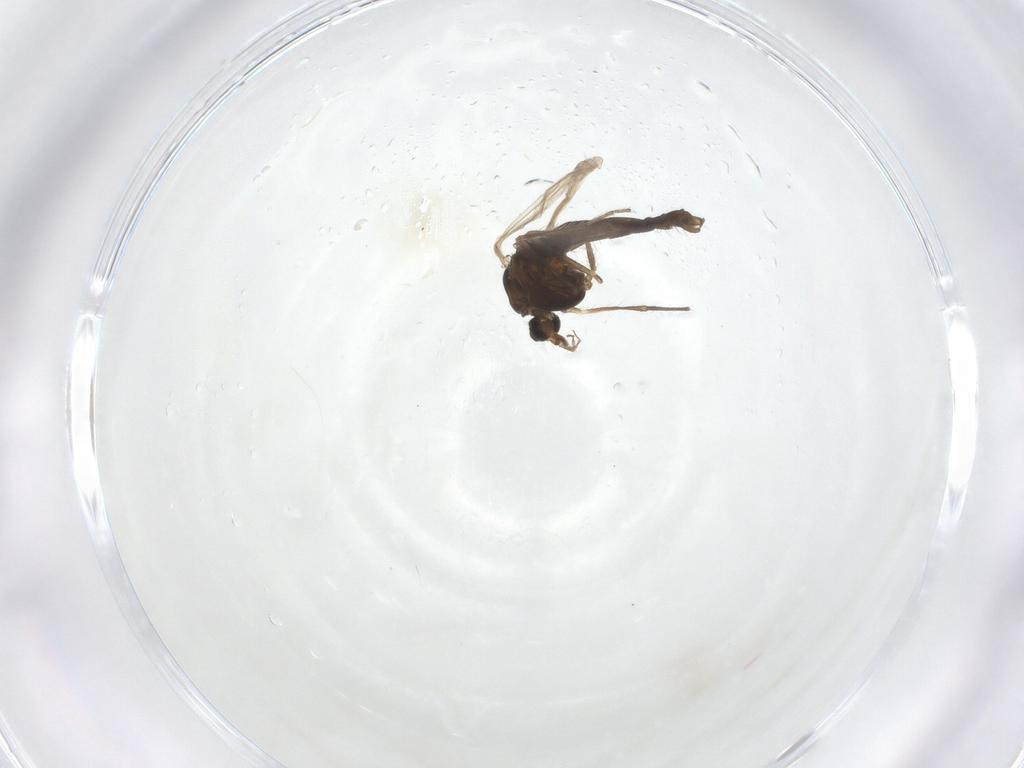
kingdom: Animalia
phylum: Arthropoda
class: Insecta
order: Diptera
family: Chironomidae
